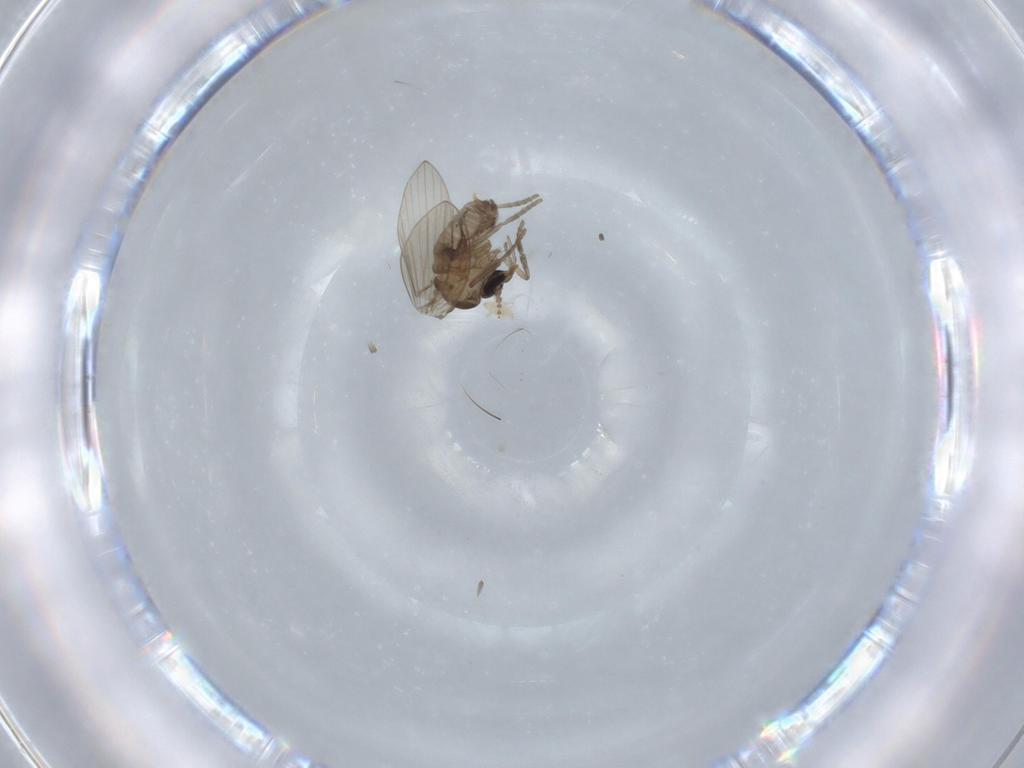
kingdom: Animalia
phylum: Arthropoda
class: Insecta
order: Diptera
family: Psychodidae
